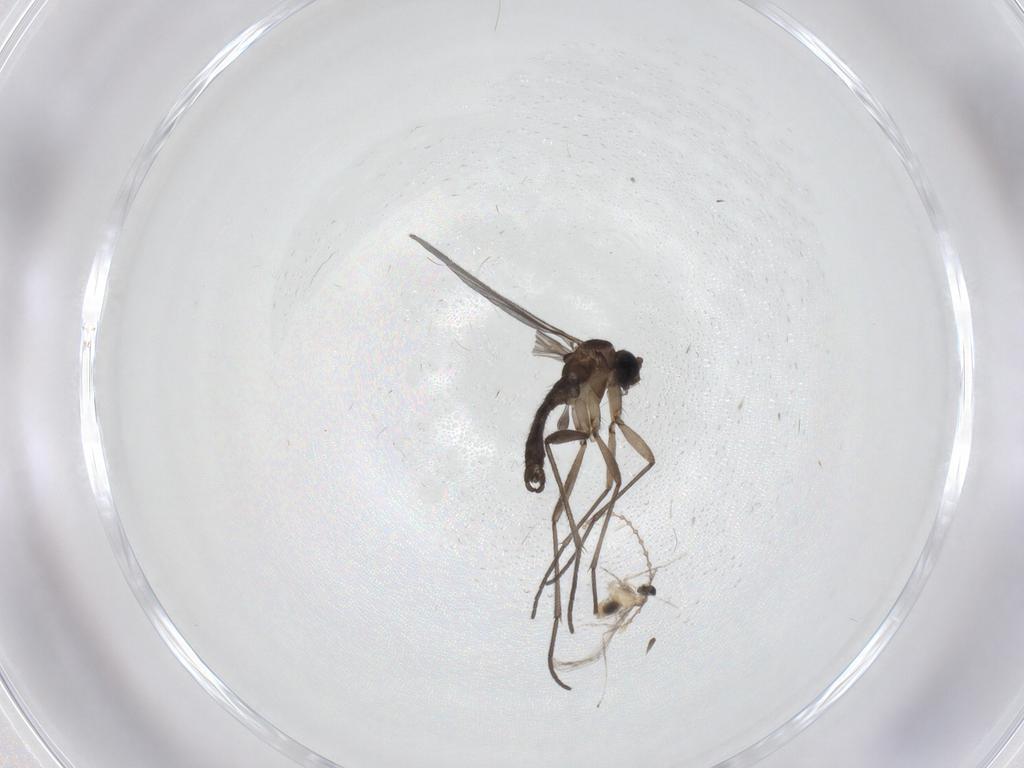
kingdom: Animalia
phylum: Arthropoda
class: Insecta
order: Diptera
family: Sciaridae
